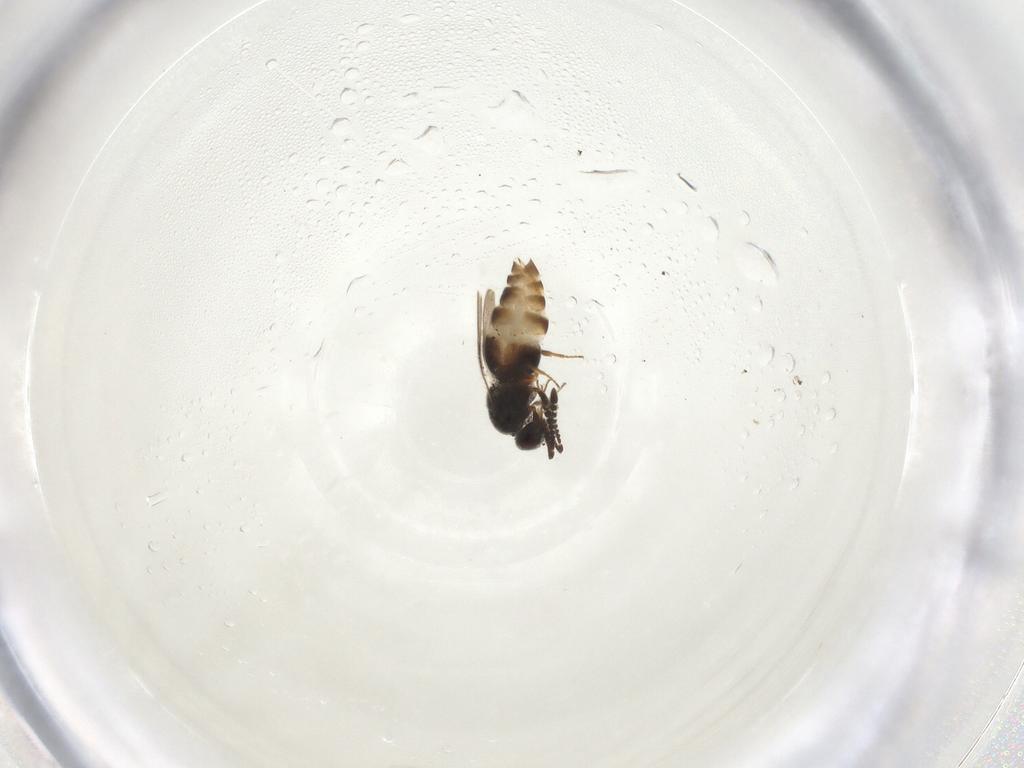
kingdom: Animalia
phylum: Arthropoda
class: Insecta
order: Hymenoptera
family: Ceraphronidae
